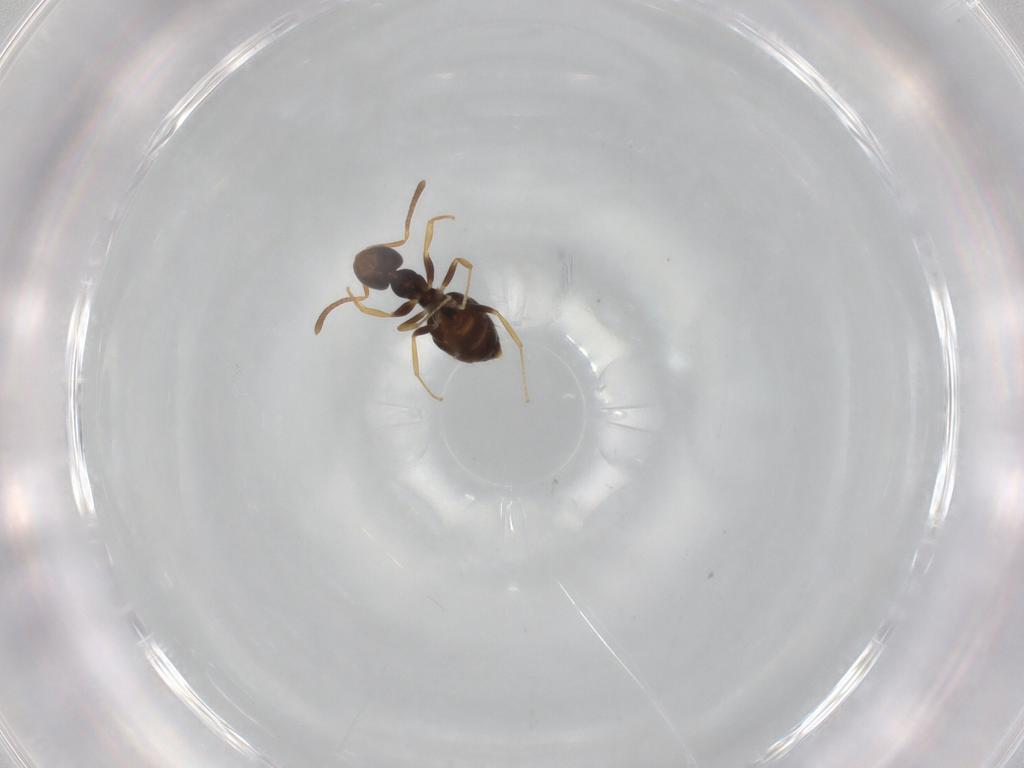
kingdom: Animalia
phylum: Arthropoda
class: Insecta
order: Hymenoptera
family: Formicidae
